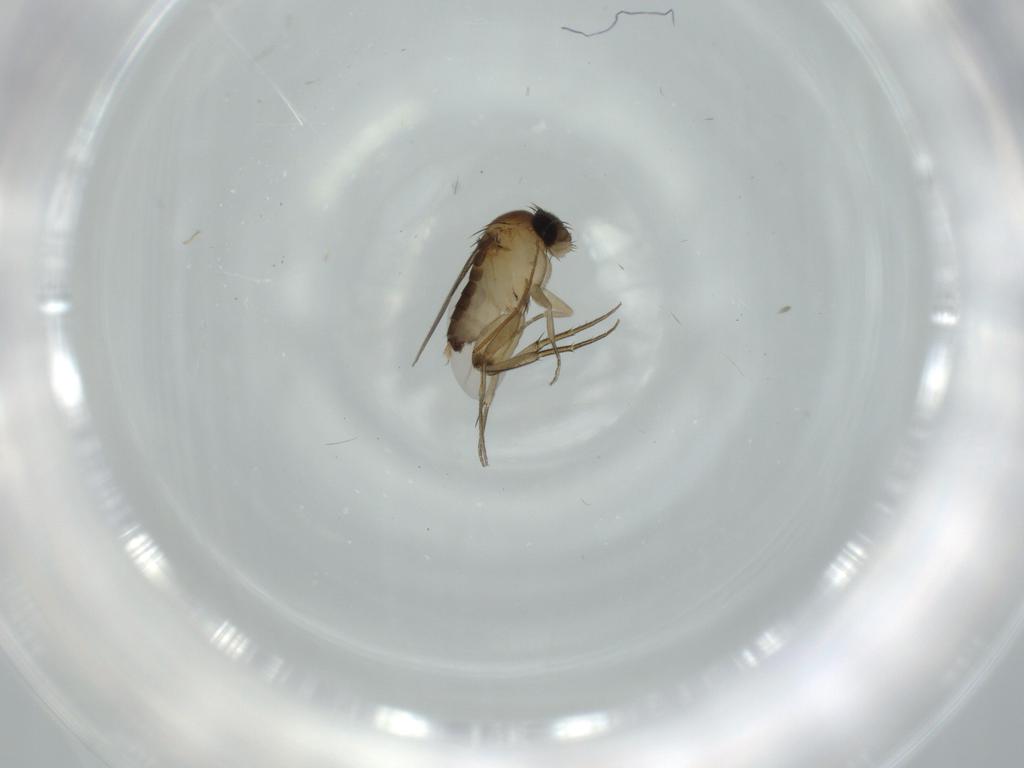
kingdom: Animalia
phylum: Arthropoda
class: Insecta
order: Diptera
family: Phoridae
